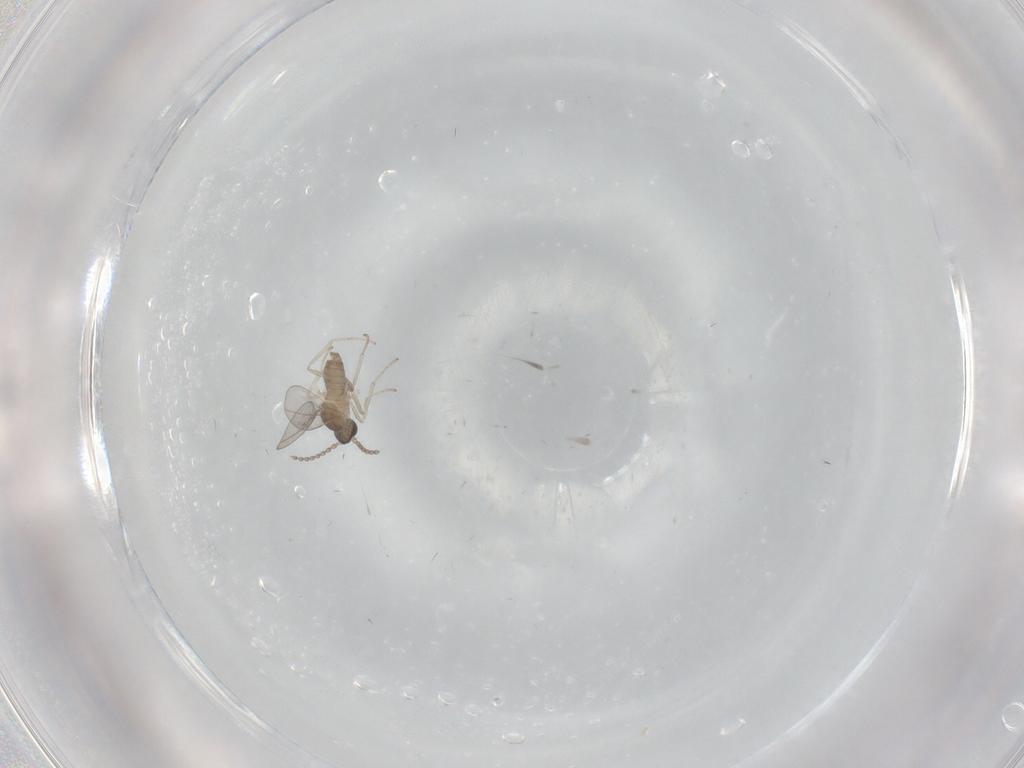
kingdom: Animalia
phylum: Arthropoda
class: Insecta
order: Diptera
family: Cecidomyiidae
